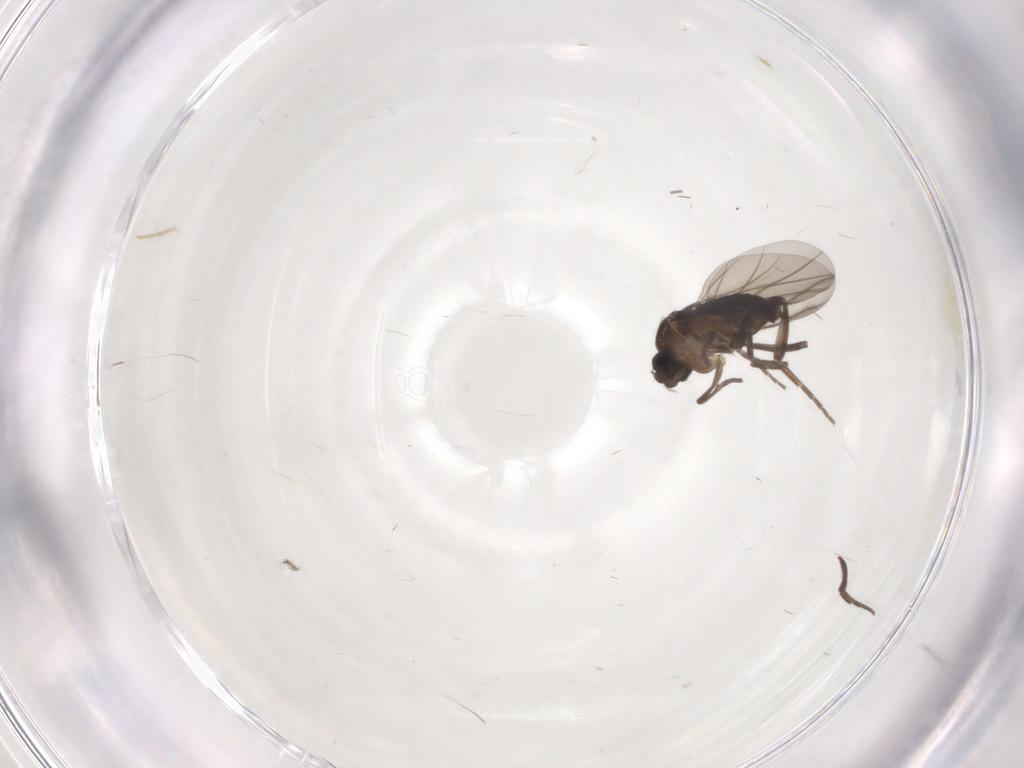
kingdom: Animalia
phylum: Arthropoda
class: Insecta
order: Diptera
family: Phoridae
